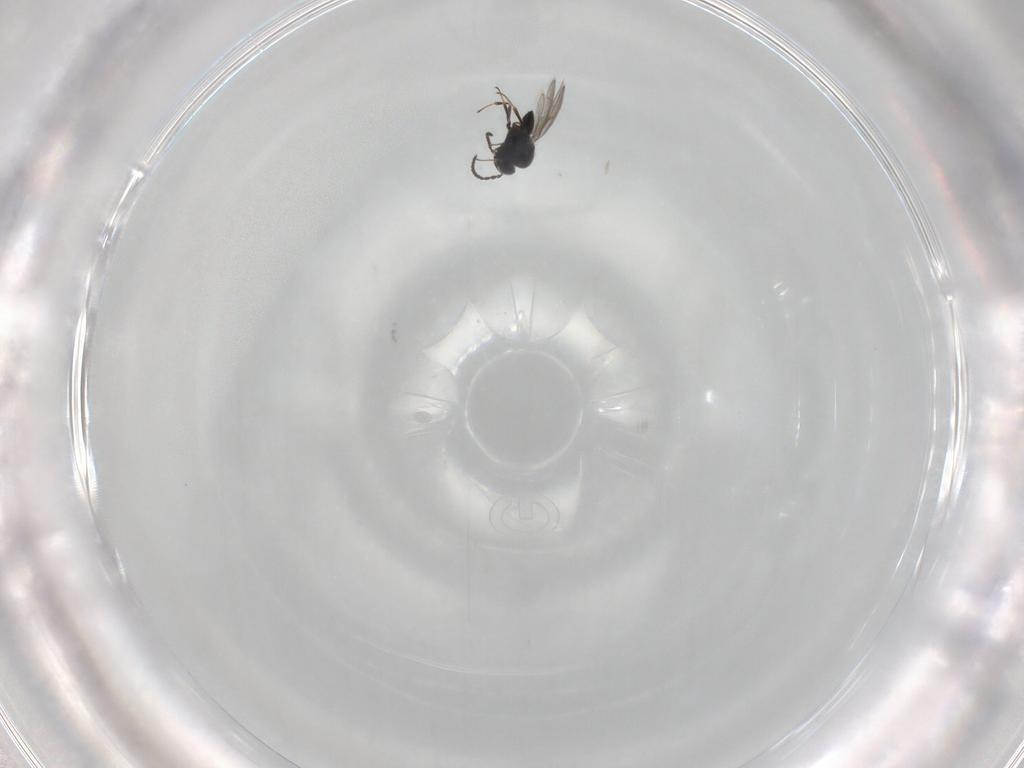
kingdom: Animalia
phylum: Arthropoda
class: Insecta
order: Hymenoptera
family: Scelionidae
